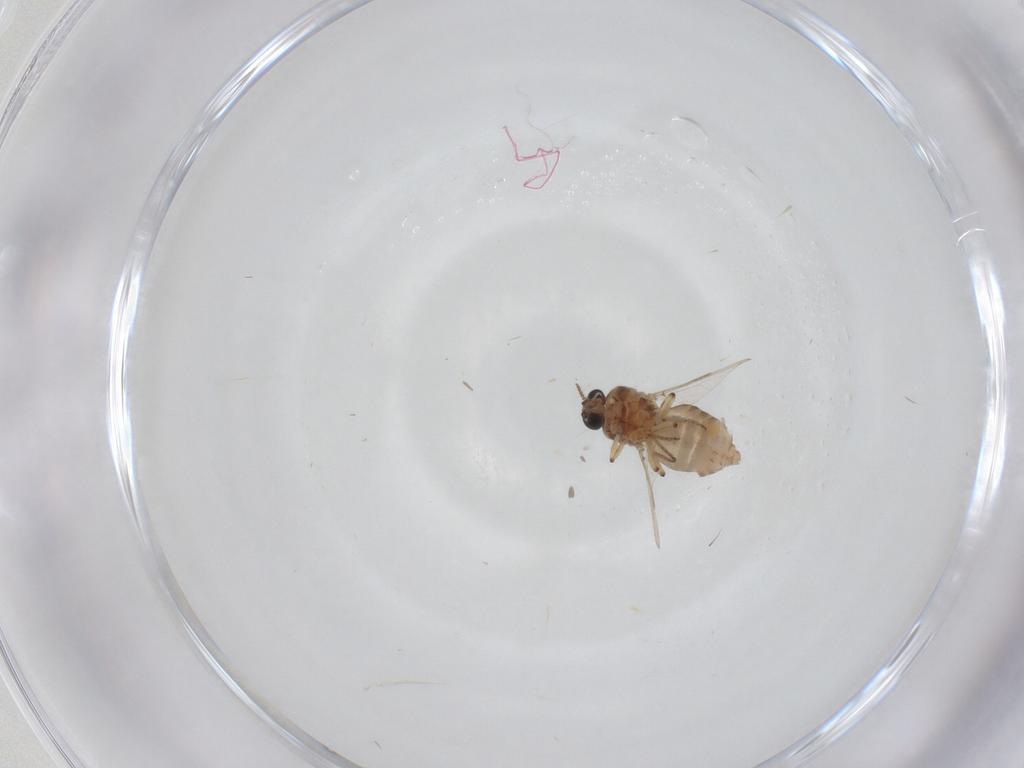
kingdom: Animalia
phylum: Arthropoda
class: Insecta
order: Diptera
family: Ceratopogonidae
